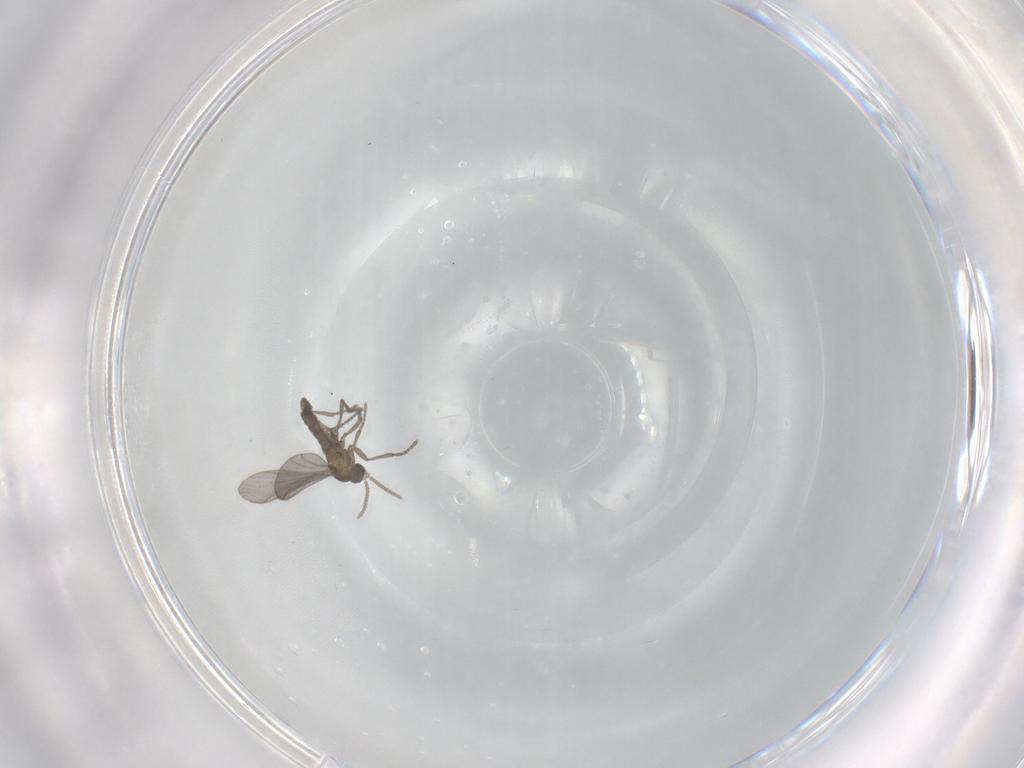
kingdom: Animalia
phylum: Arthropoda
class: Insecta
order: Diptera
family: Sciaridae
